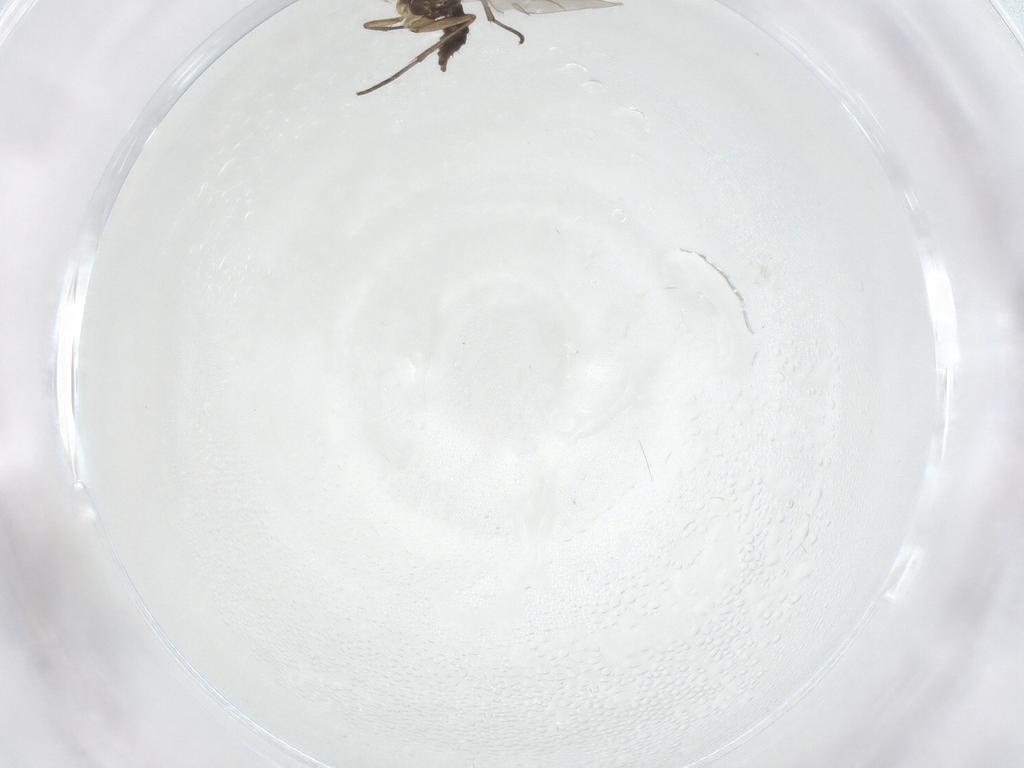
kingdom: Animalia
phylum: Arthropoda
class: Insecta
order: Diptera
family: Sciaridae
